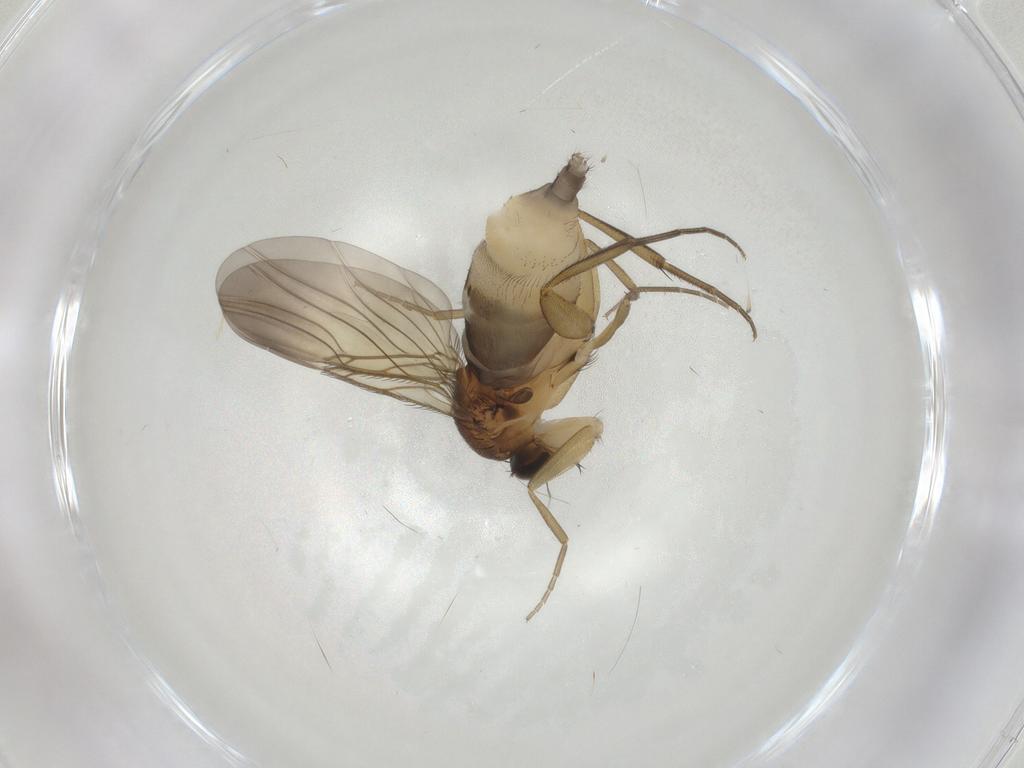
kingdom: Animalia
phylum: Arthropoda
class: Insecta
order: Diptera
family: Phoridae
